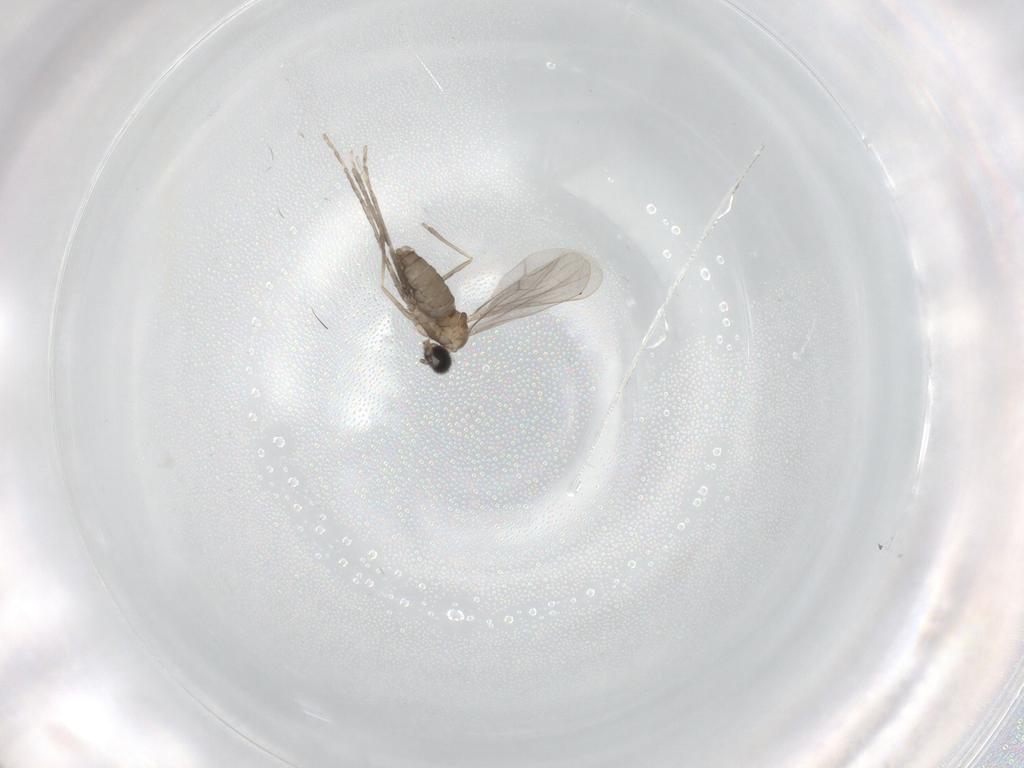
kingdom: Animalia
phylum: Arthropoda
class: Insecta
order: Diptera
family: Cecidomyiidae
